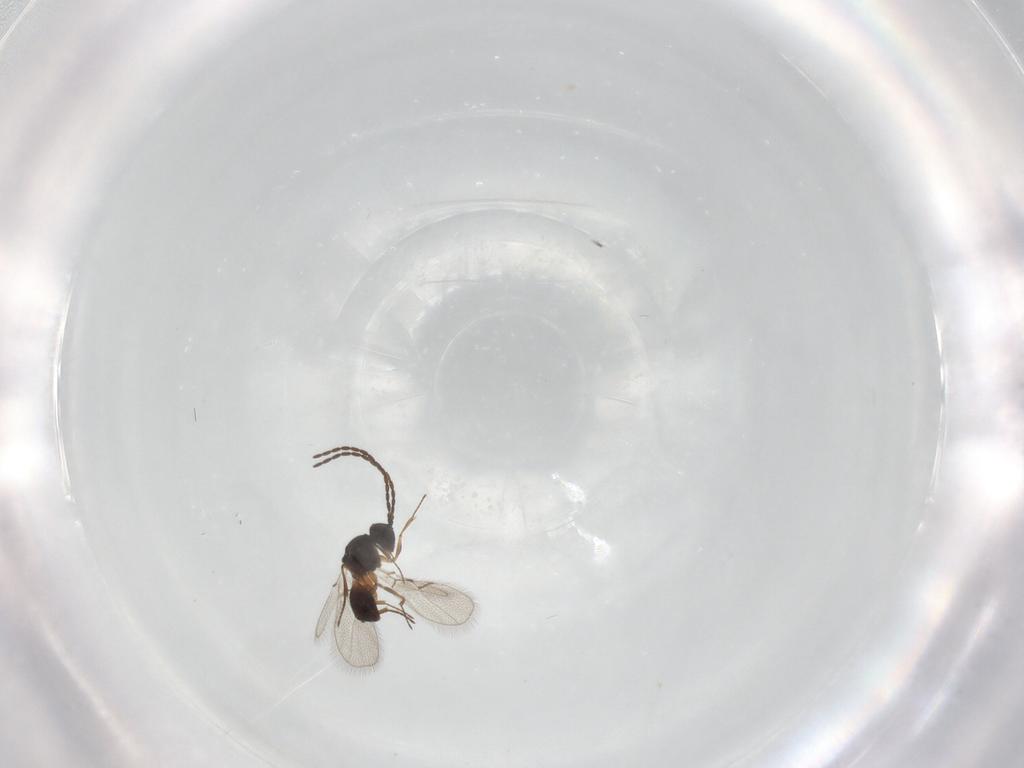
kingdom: Animalia
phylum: Arthropoda
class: Insecta
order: Hymenoptera
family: Figitidae
